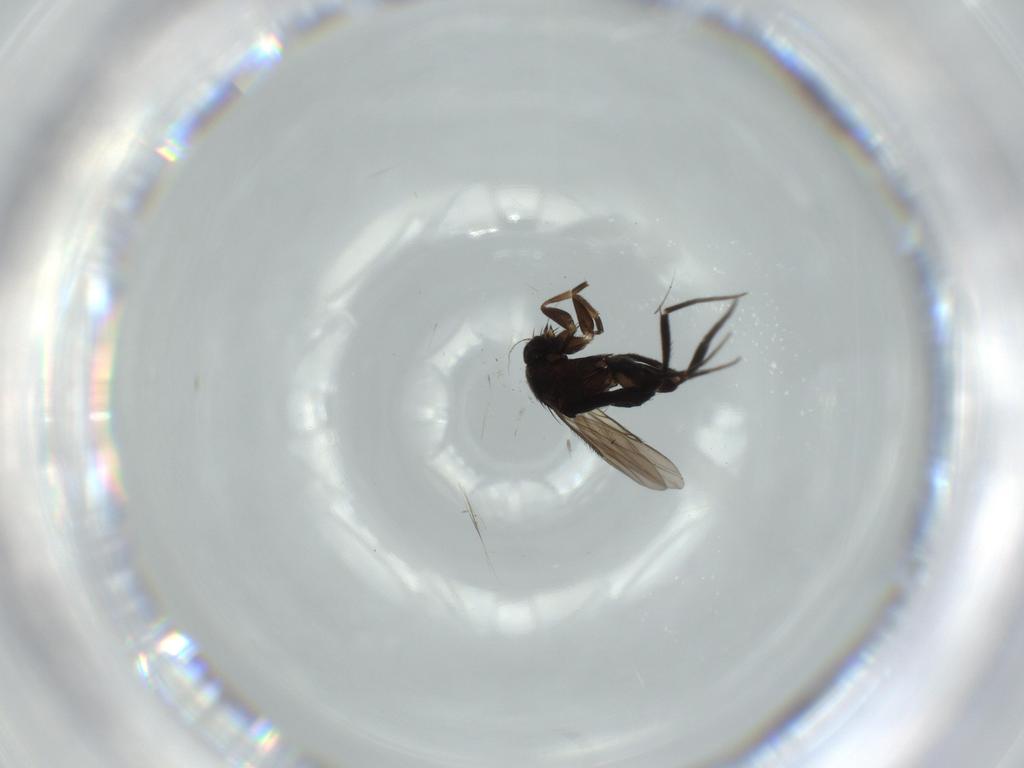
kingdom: Animalia
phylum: Arthropoda
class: Insecta
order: Diptera
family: Phoridae
